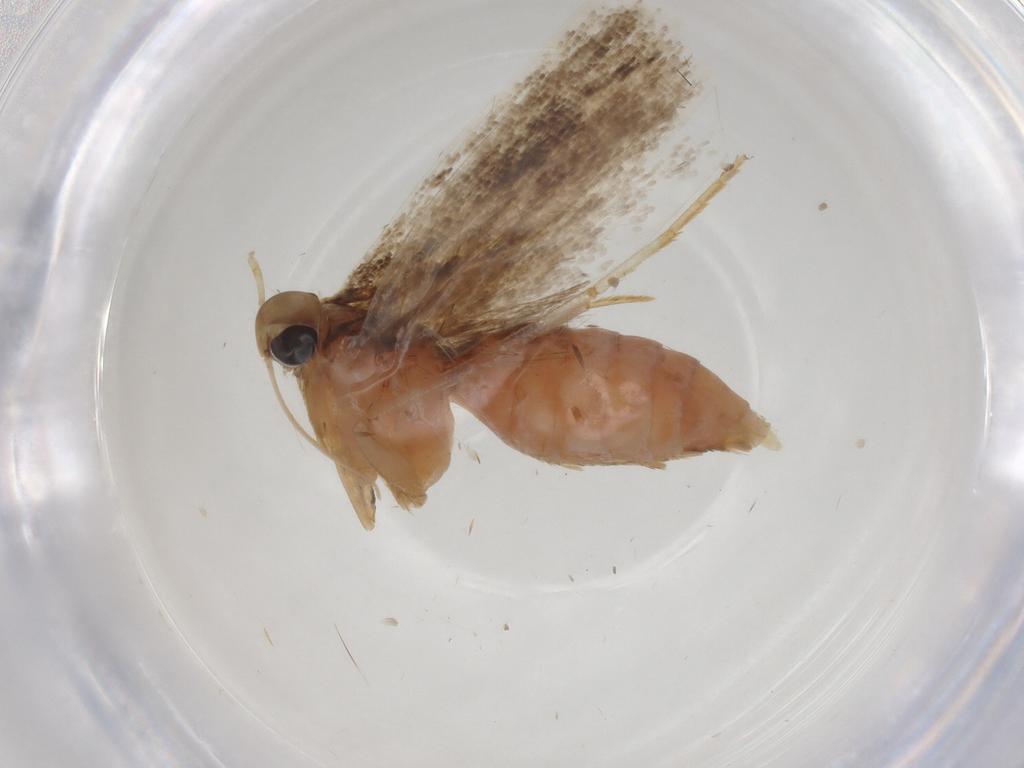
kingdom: Animalia
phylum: Arthropoda
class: Insecta
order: Lepidoptera
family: Gelechiidae
